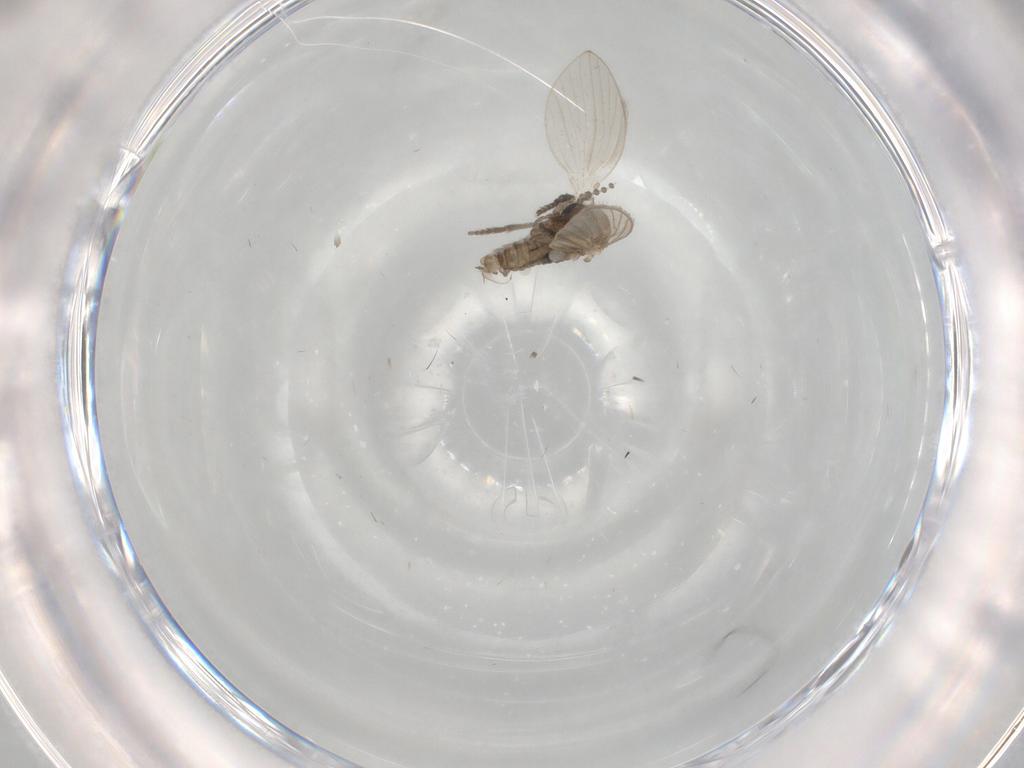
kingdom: Animalia
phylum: Arthropoda
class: Insecta
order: Diptera
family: Psychodidae
